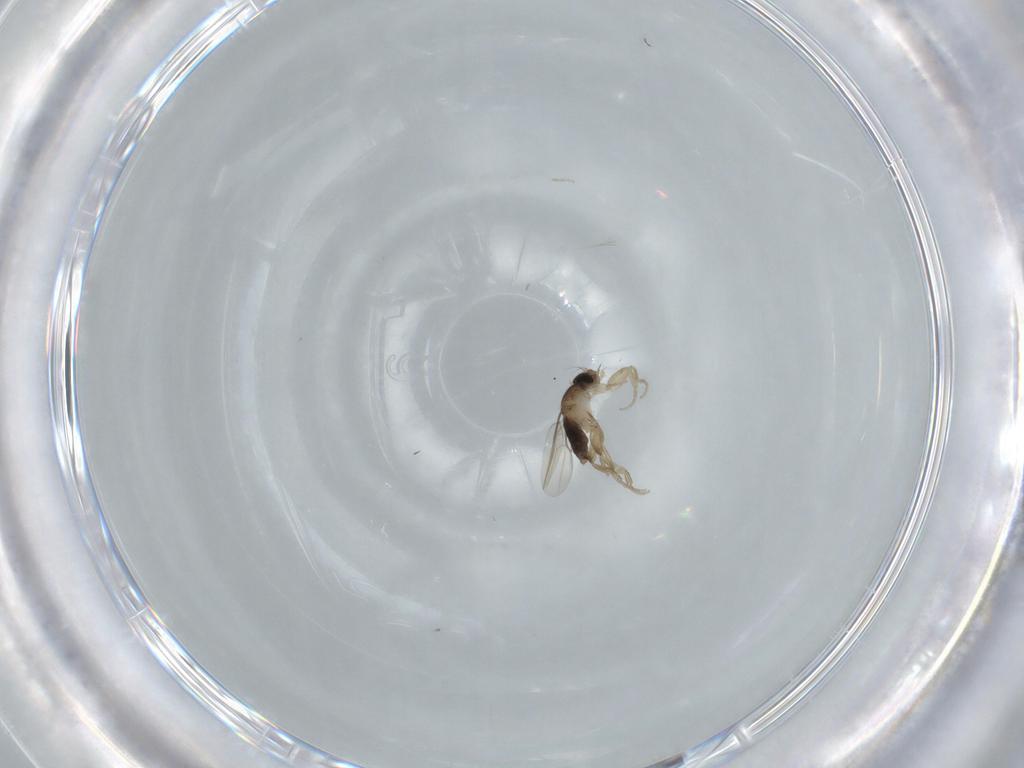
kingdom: Animalia
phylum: Arthropoda
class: Insecta
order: Diptera
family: Phoridae
